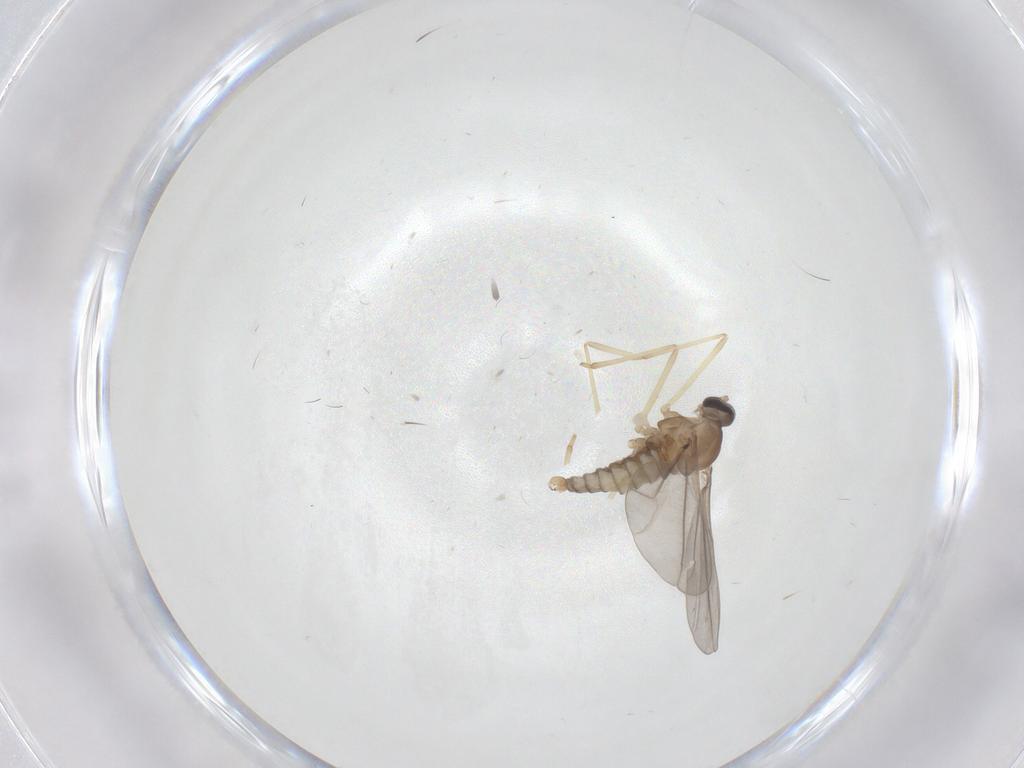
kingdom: Animalia
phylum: Arthropoda
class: Insecta
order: Diptera
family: Cecidomyiidae
